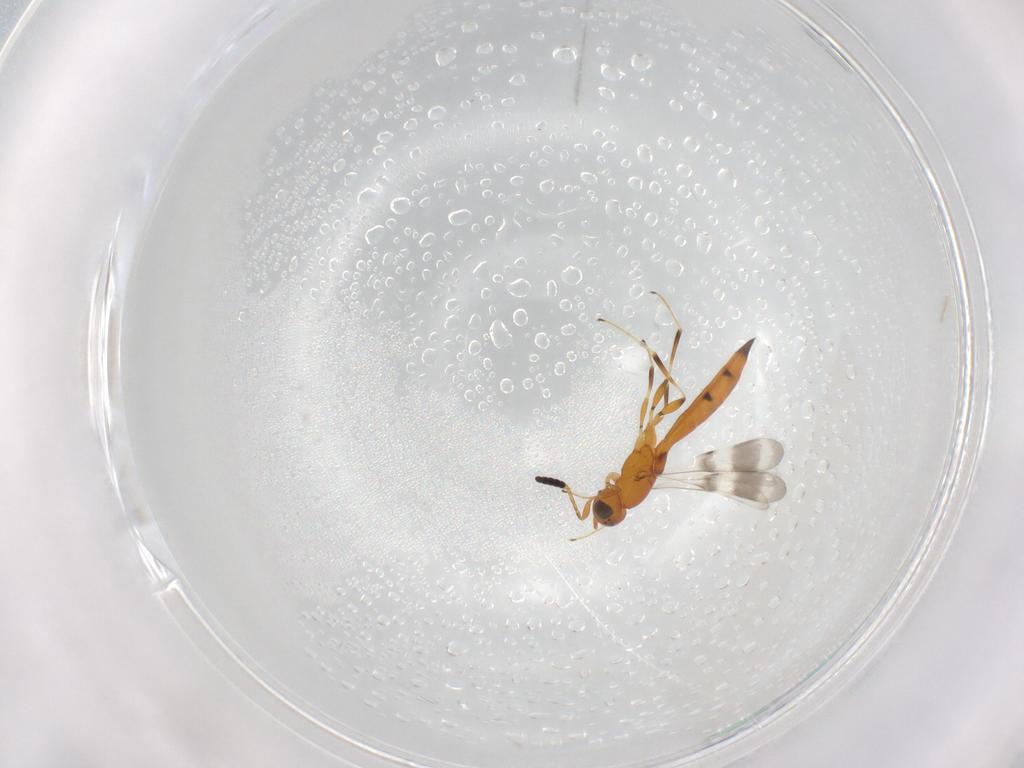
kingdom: Animalia
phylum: Arthropoda
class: Insecta
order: Hymenoptera
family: Scelionidae
